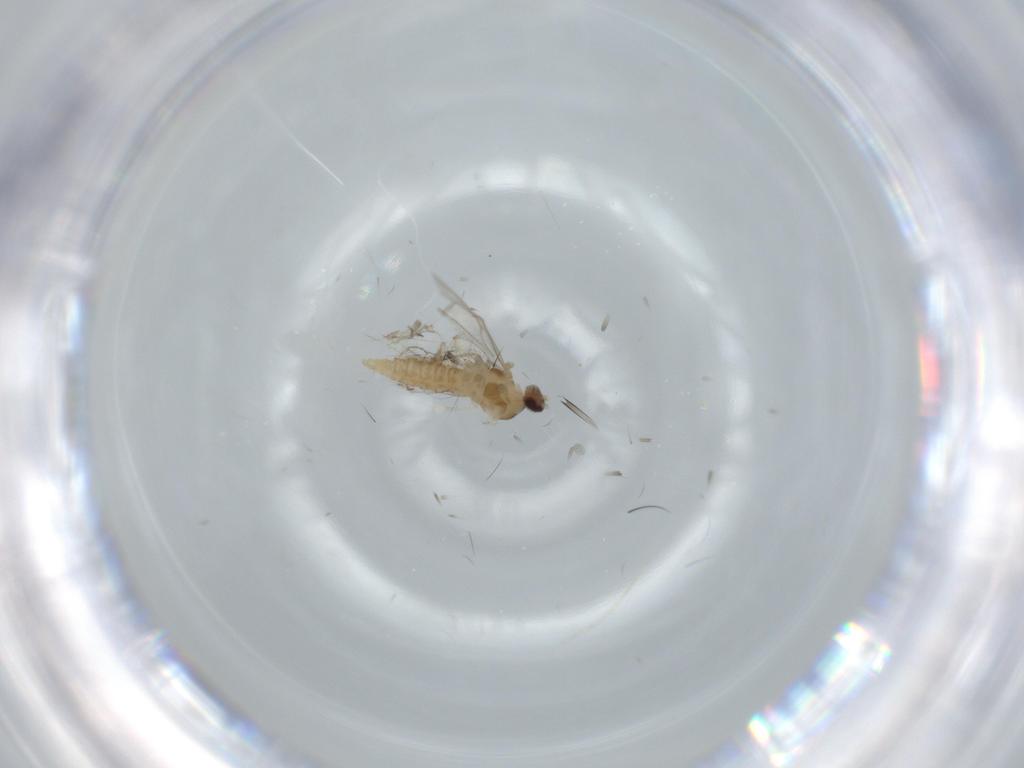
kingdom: Animalia
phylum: Arthropoda
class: Insecta
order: Diptera
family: Cecidomyiidae
